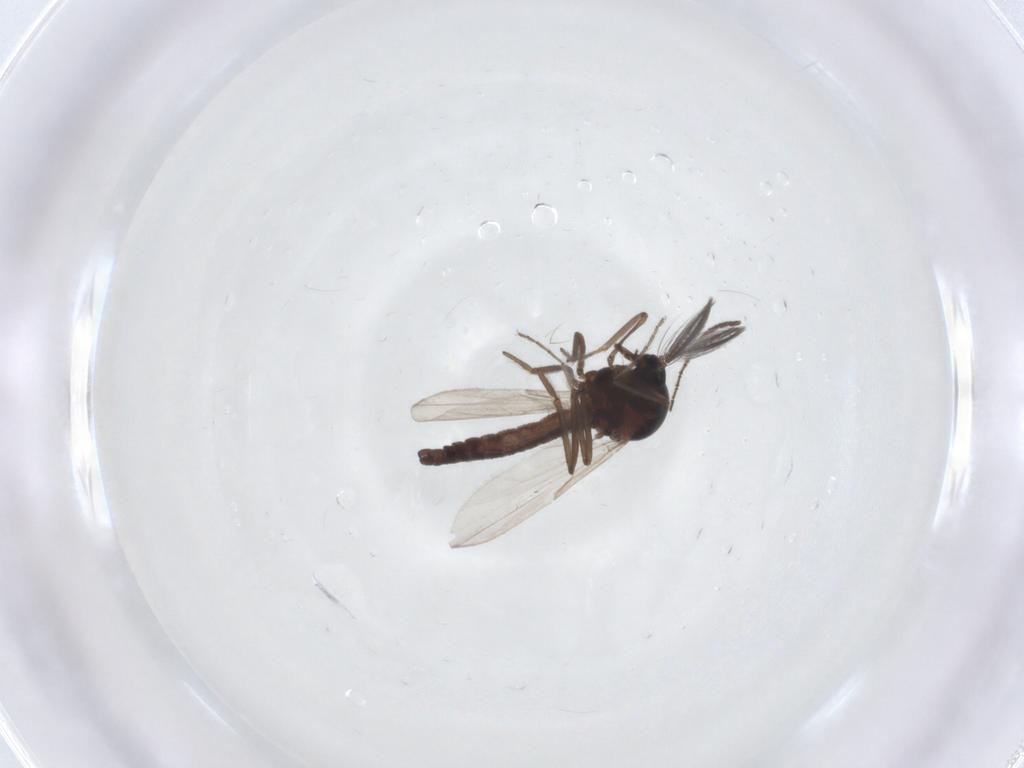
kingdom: Animalia
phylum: Arthropoda
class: Insecta
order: Diptera
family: Ceratopogonidae
